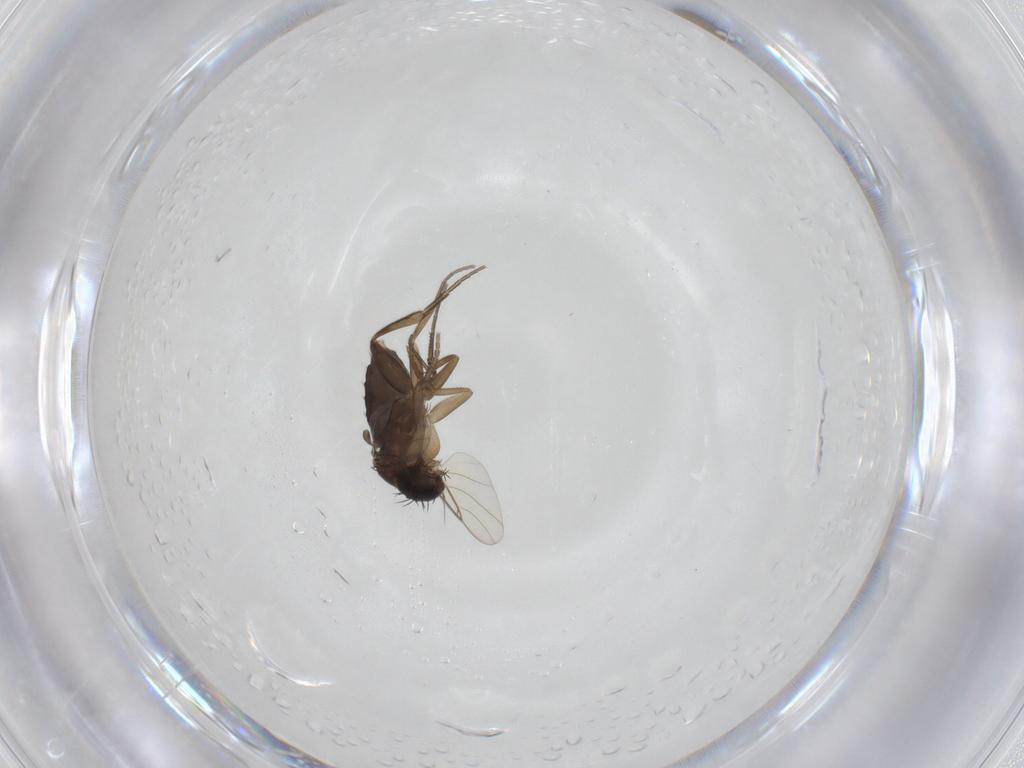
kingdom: Animalia
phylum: Arthropoda
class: Insecta
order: Diptera
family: Phoridae
